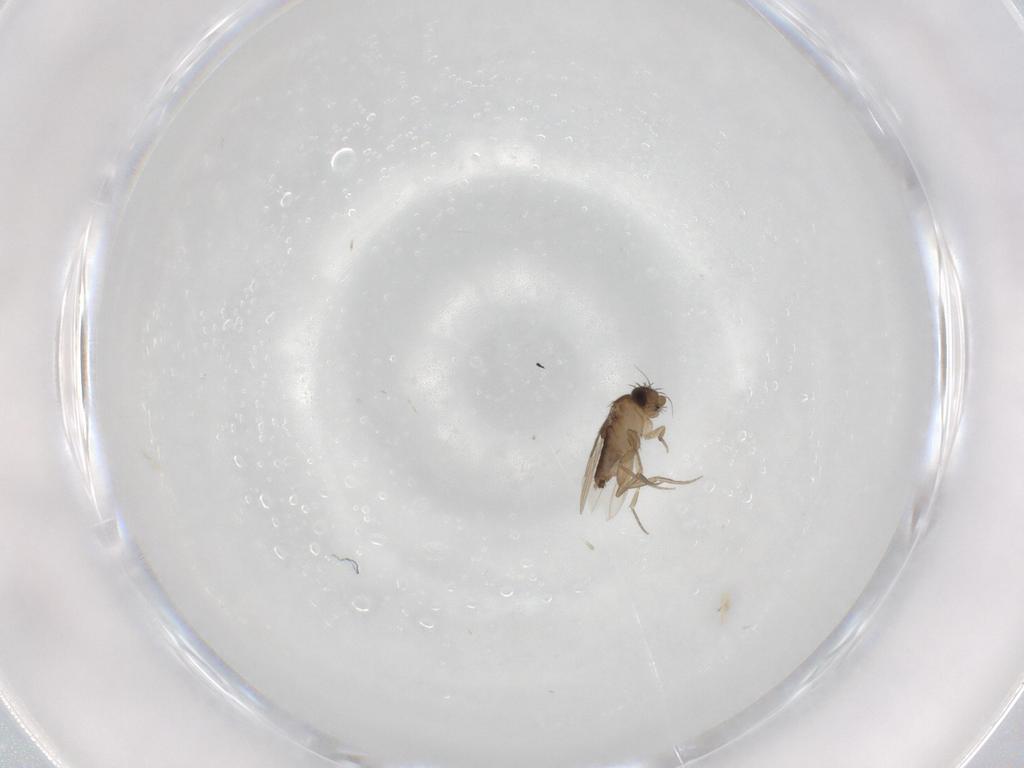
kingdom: Animalia
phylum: Arthropoda
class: Insecta
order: Diptera
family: Phoridae
